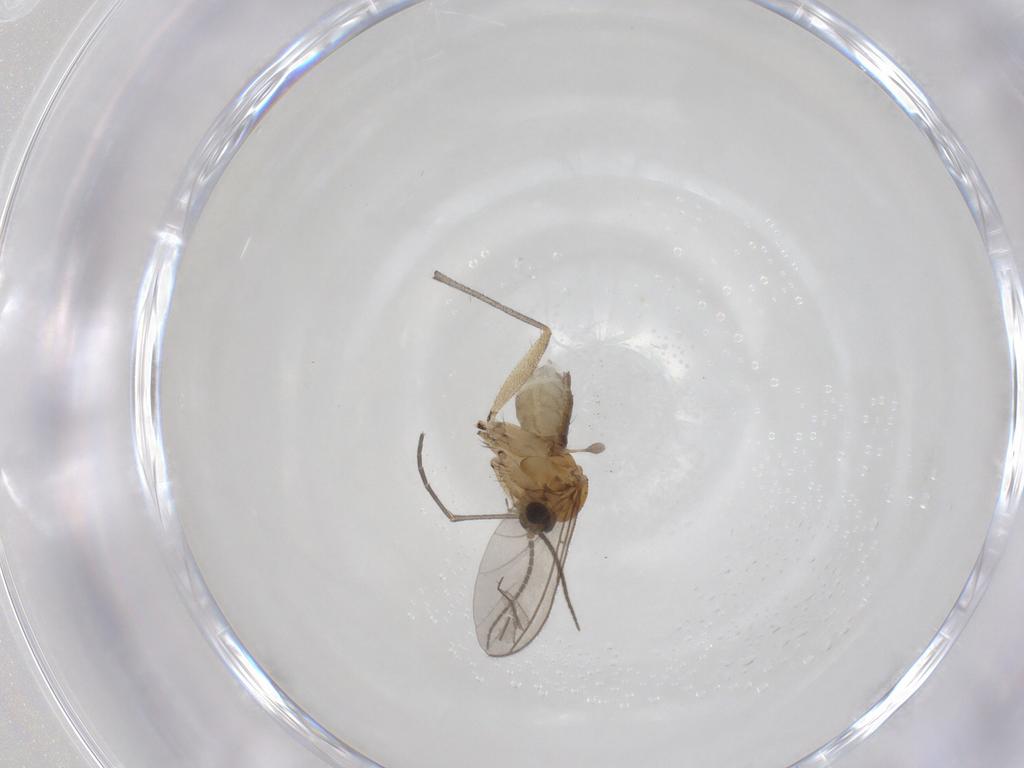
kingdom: Animalia
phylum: Arthropoda
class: Insecta
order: Diptera
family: Sciaridae
